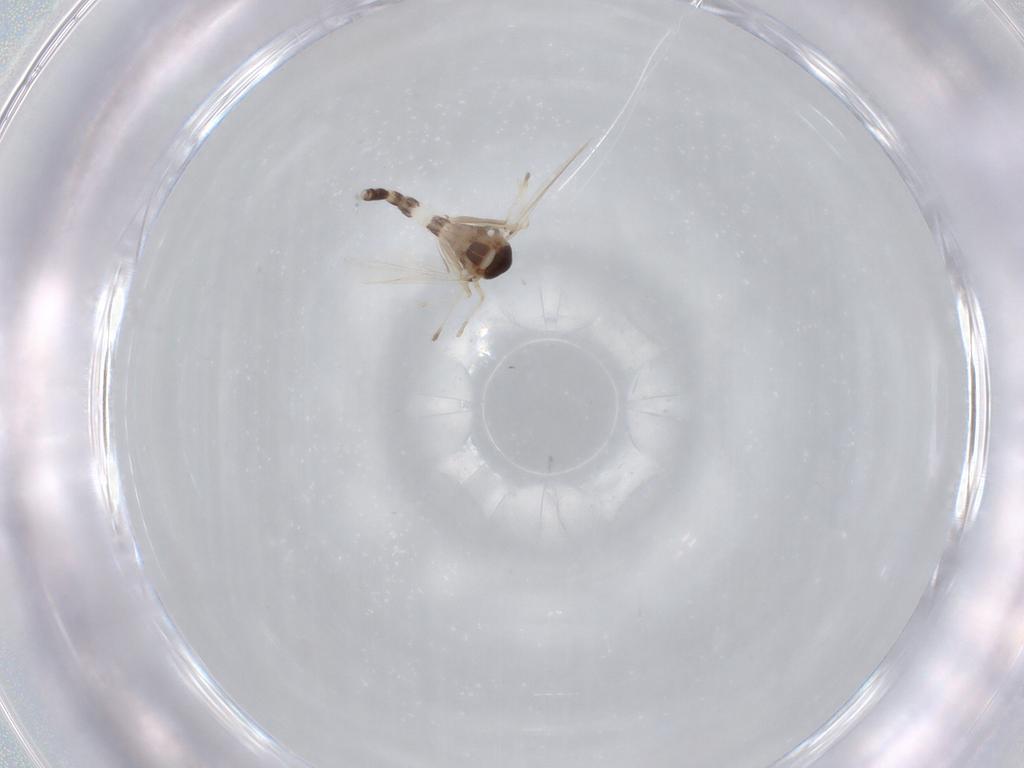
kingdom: Animalia
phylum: Arthropoda
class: Insecta
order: Diptera
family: Chironomidae
